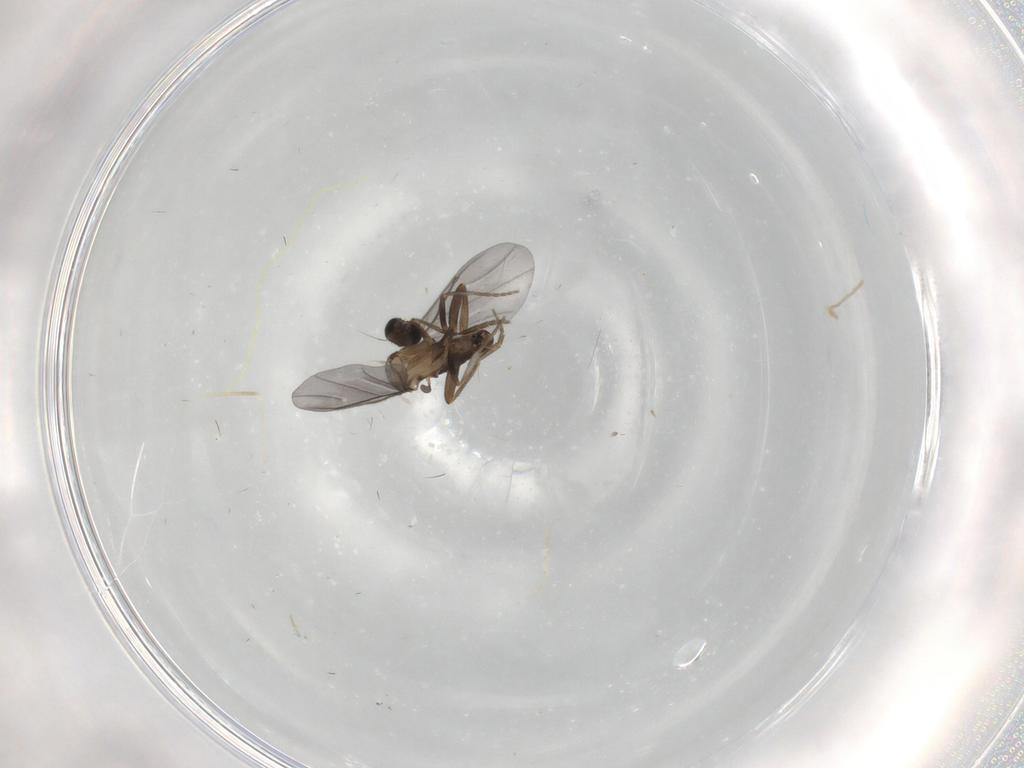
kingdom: Animalia
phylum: Arthropoda
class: Insecta
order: Diptera
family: Phoridae
